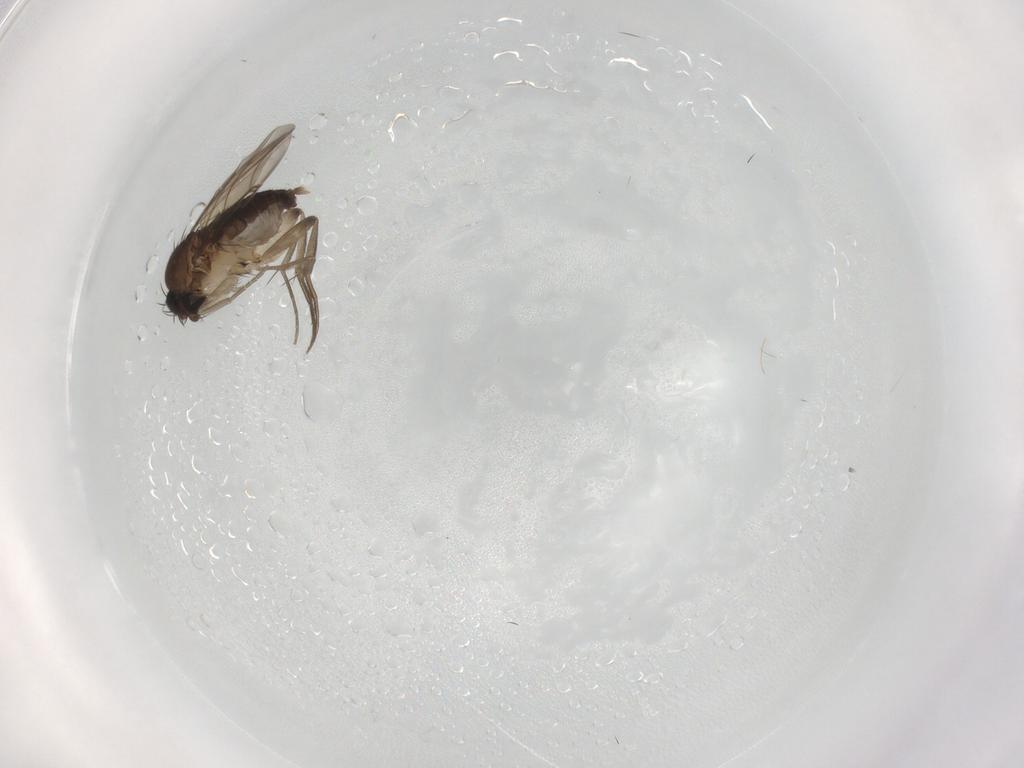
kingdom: Animalia
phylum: Arthropoda
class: Insecta
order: Diptera
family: Phoridae
